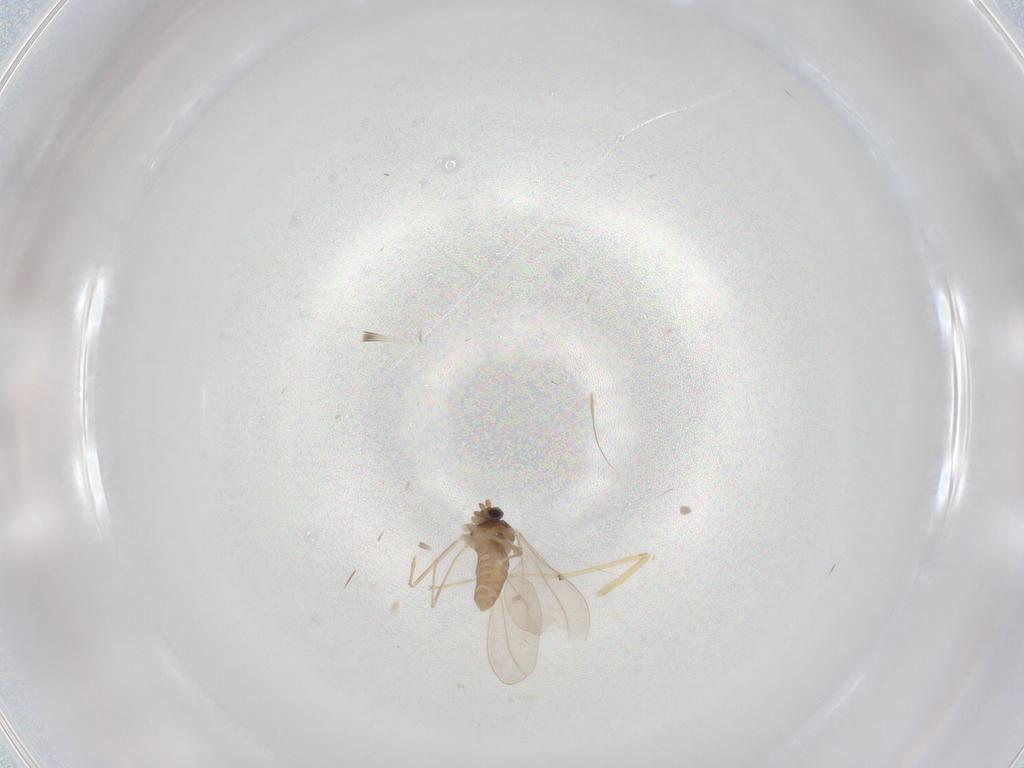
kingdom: Animalia
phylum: Arthropoda
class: Insecta
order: Diptera
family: Cecidomyiidae
